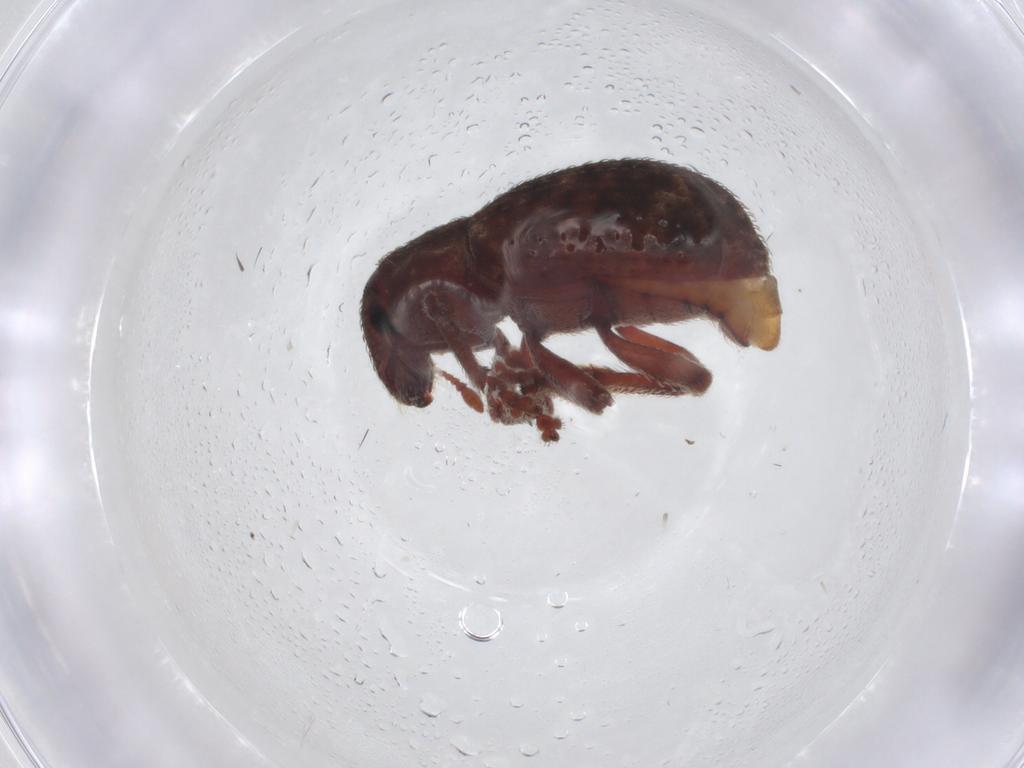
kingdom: Animalia
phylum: Arthropoda
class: Insecta
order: Coleoptera
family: Curculionidae
